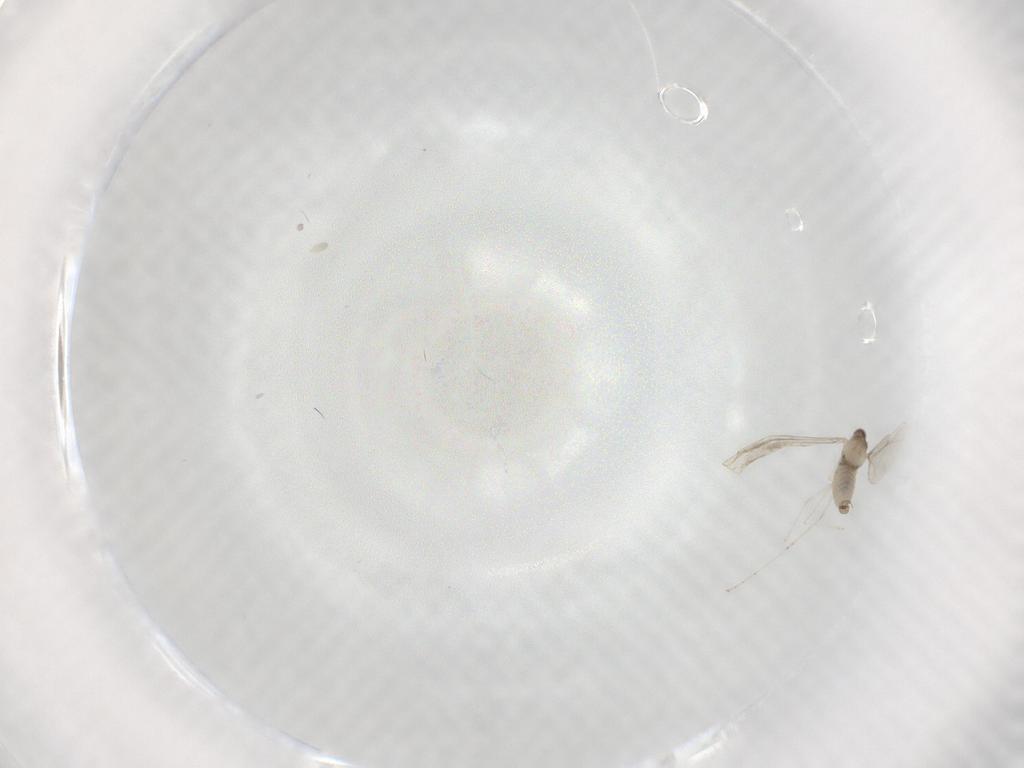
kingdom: Animalia
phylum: Arthropoda
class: Insecta
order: Diptera
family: Cecidomyiidae
